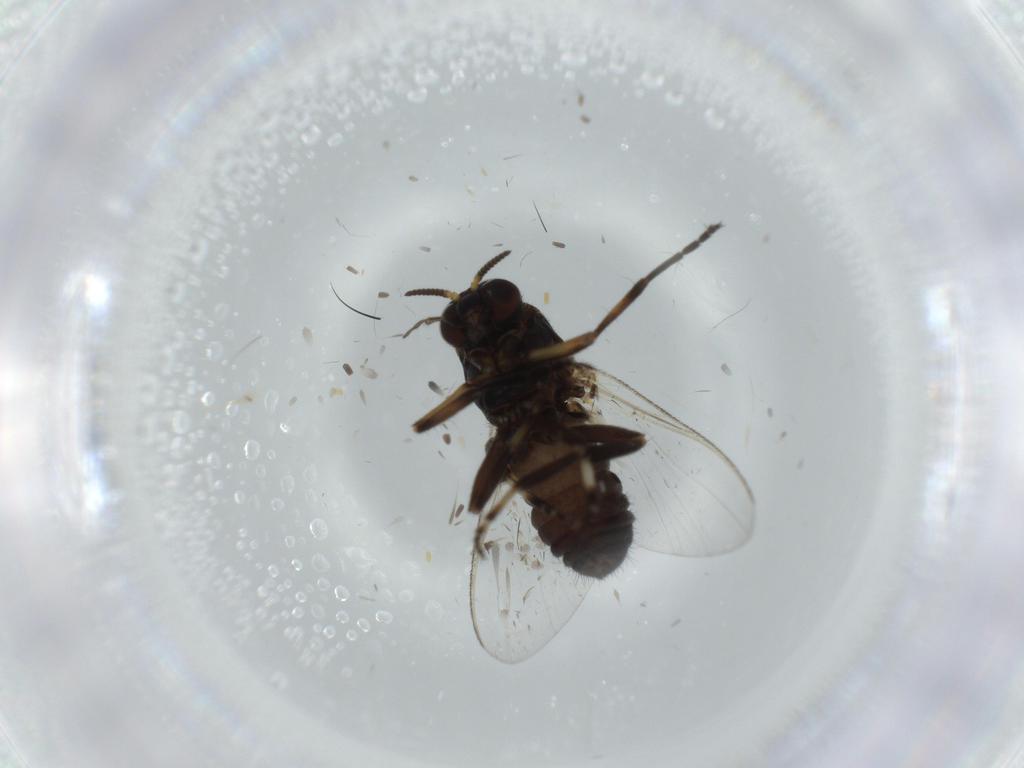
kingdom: Animalia
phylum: Arthropoda
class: Insecta
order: Diptera
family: Phoridae
